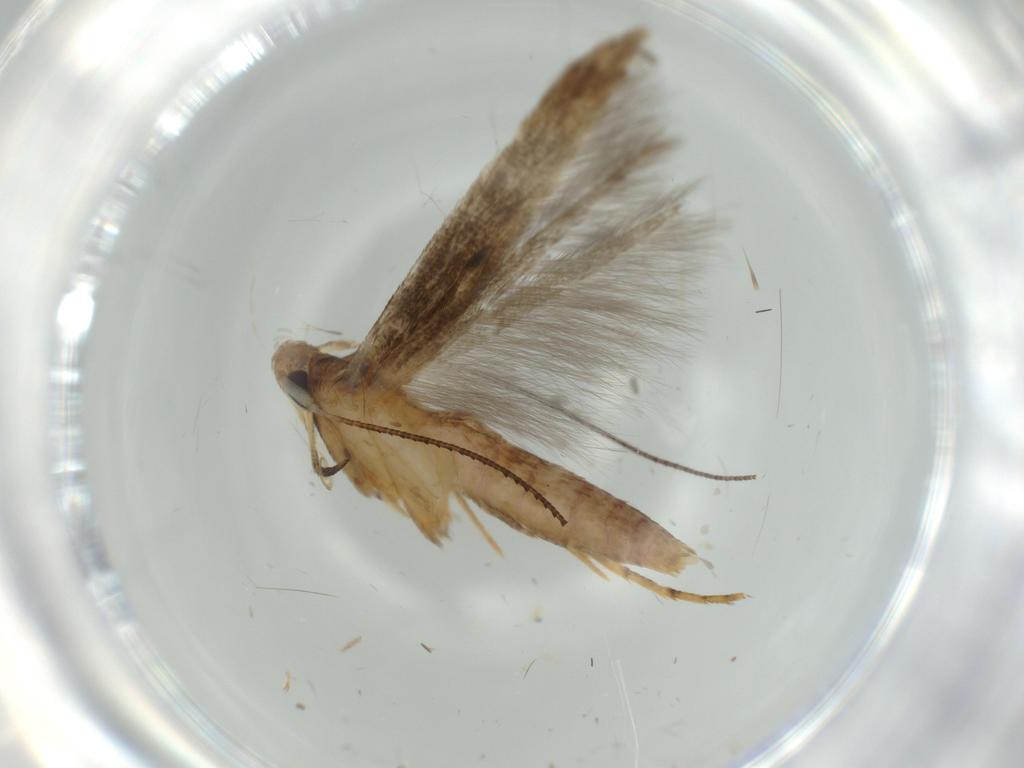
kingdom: Animalia
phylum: Arthropoda
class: Insecta
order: Lepidoptera
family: Heliodinidae
